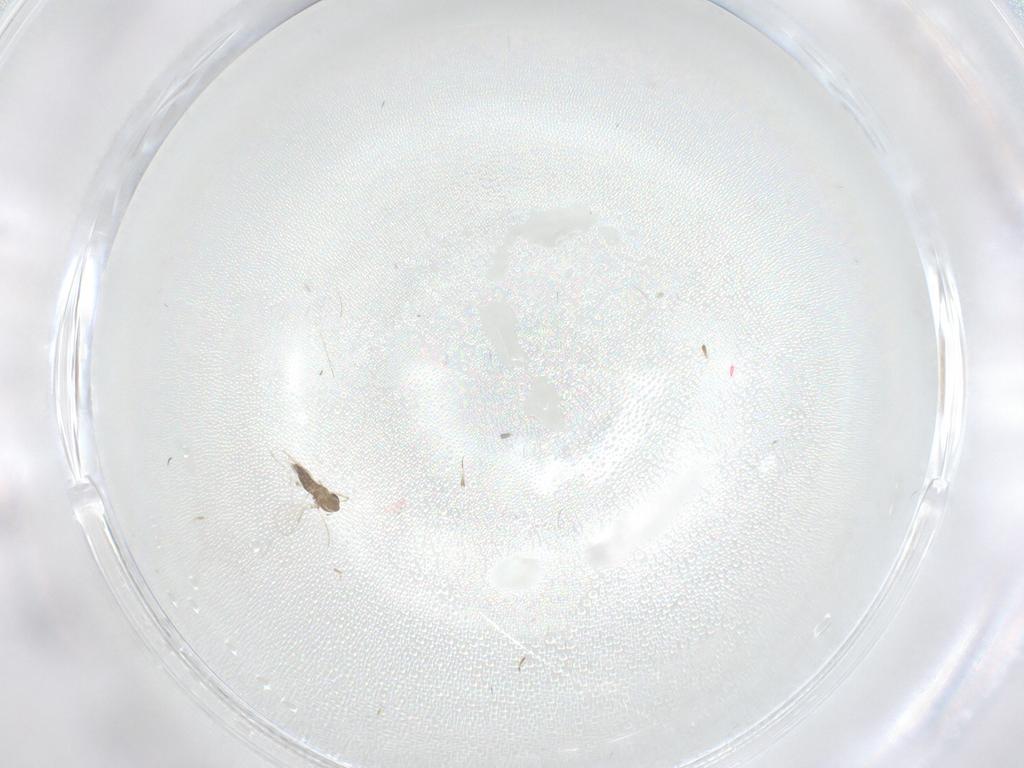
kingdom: Animalia
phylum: Arthropoda
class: Insecta
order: Diptera
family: Chironomidae
